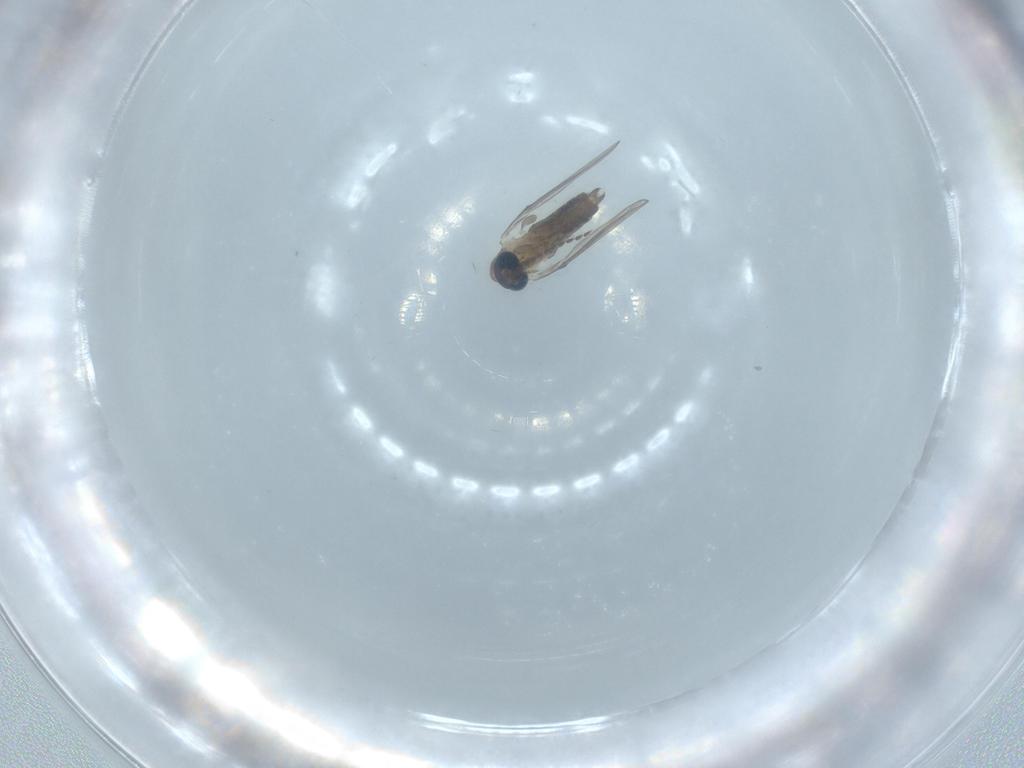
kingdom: Animalia
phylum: Arthropoda
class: Insecta
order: Diptera
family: Psychodidae
